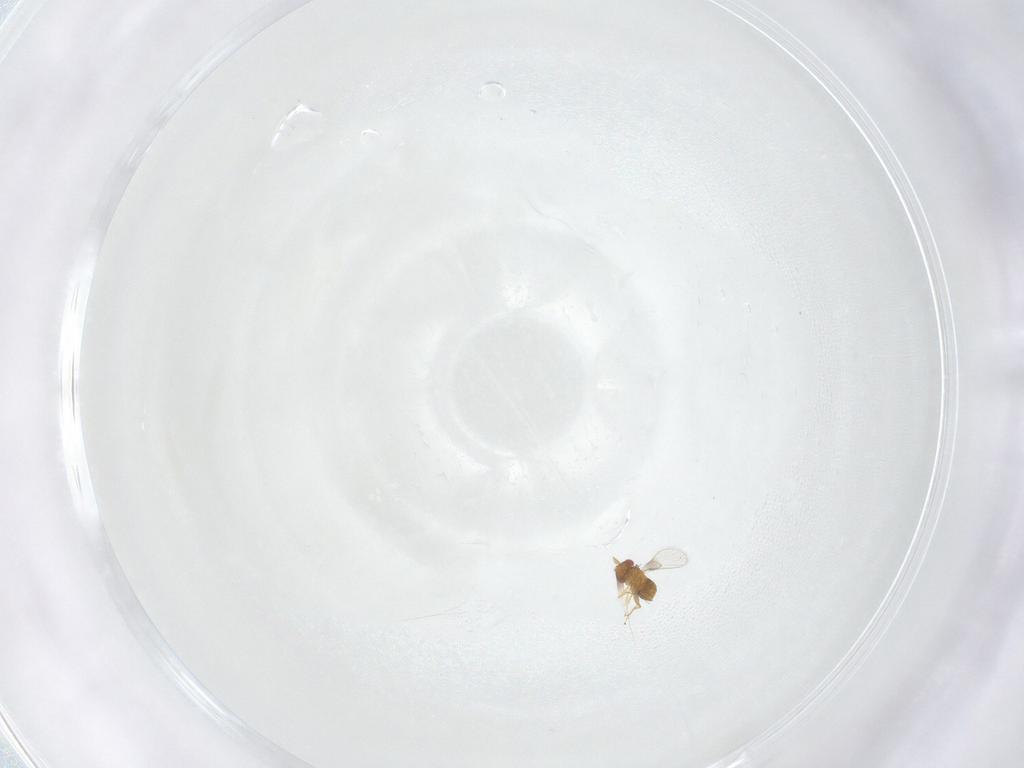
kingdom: Animalia
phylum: Arthropoda
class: Insecta
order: Hymenoptera
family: Trichogrammatidae
